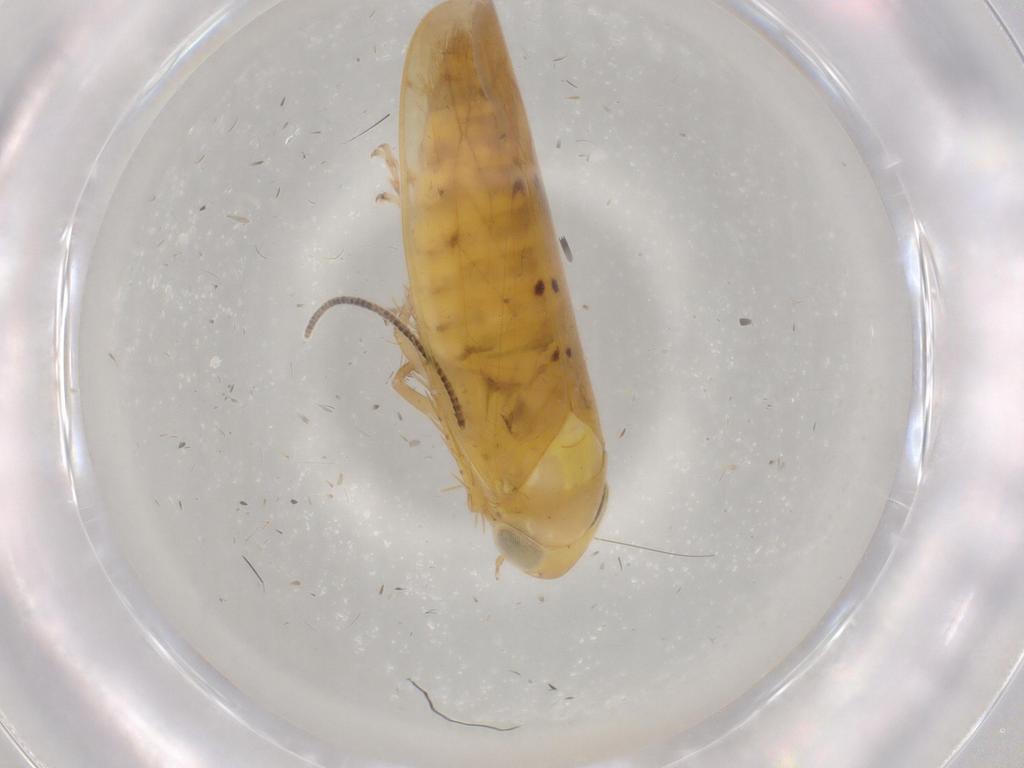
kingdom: Animalia
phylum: Arthropoda
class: Insecta
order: Hemiptera
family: Cicadellidae
